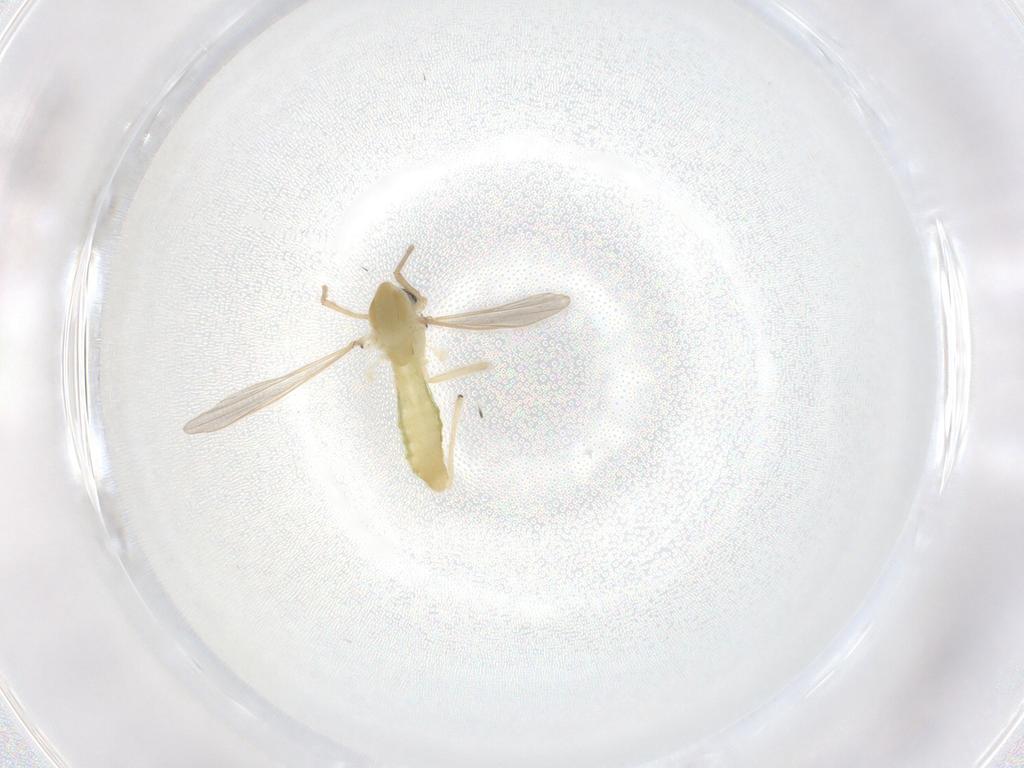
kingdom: Animalia
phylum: Arthropoda
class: Insecta
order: Diptera
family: Chironomidae
